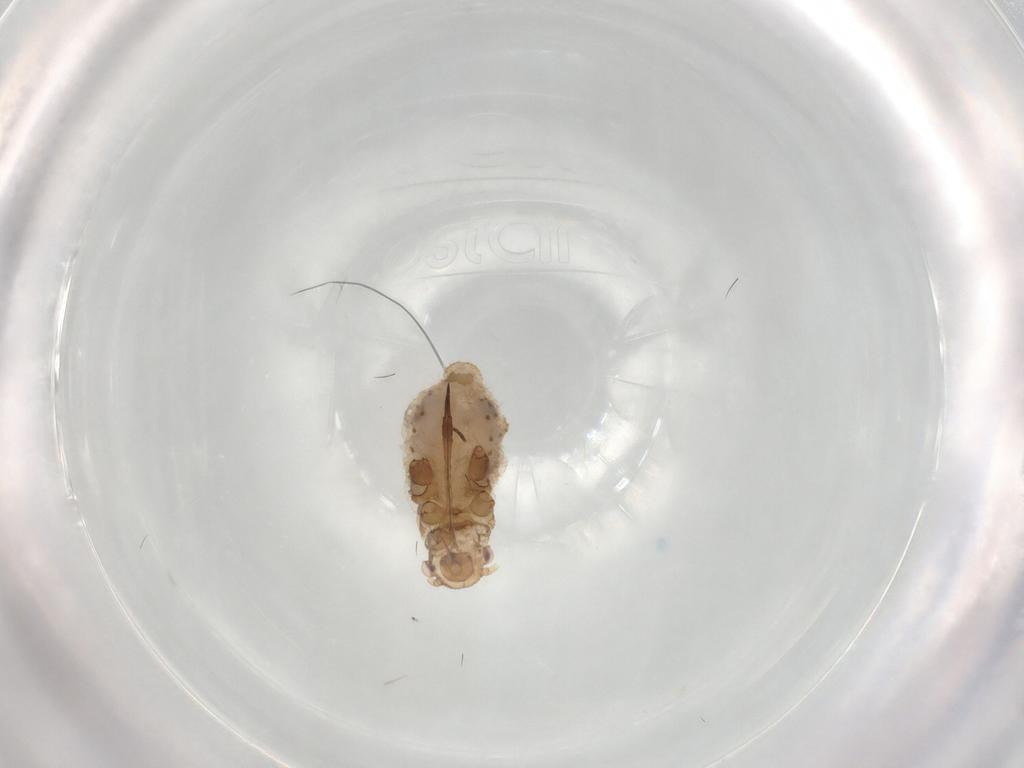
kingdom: Animalia
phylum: Arthropoda
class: Insecta
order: Hemiptera
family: Aphididae
